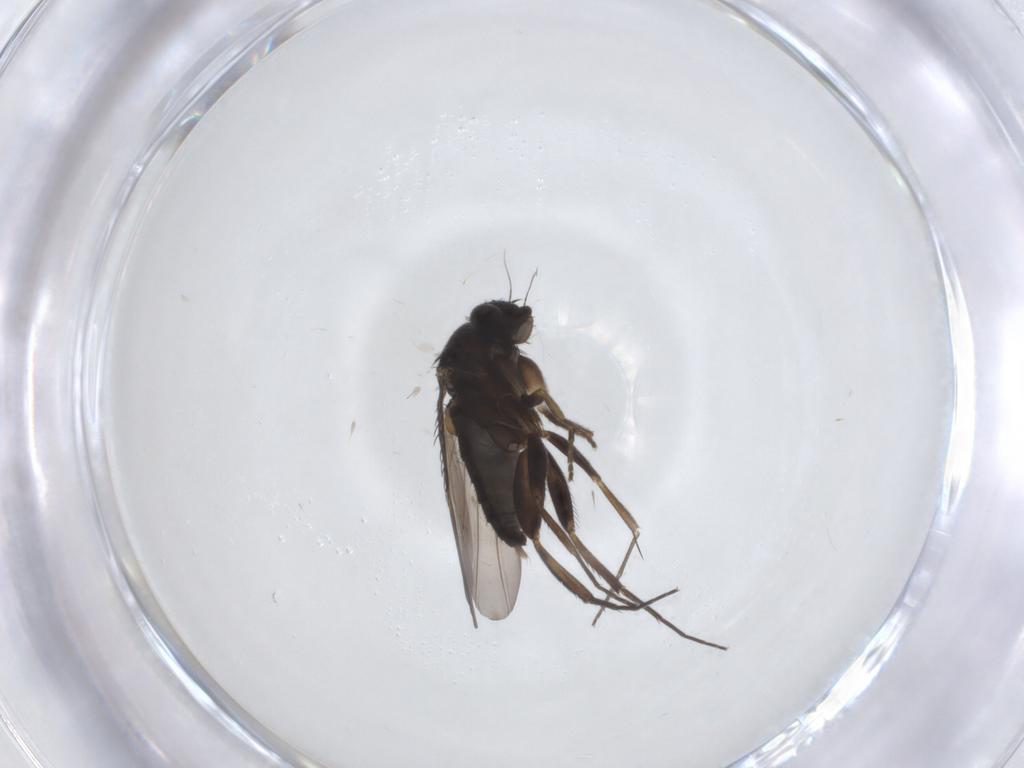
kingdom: Animalia
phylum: Arthropoda
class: Insecta
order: Diptera
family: Phoridae
